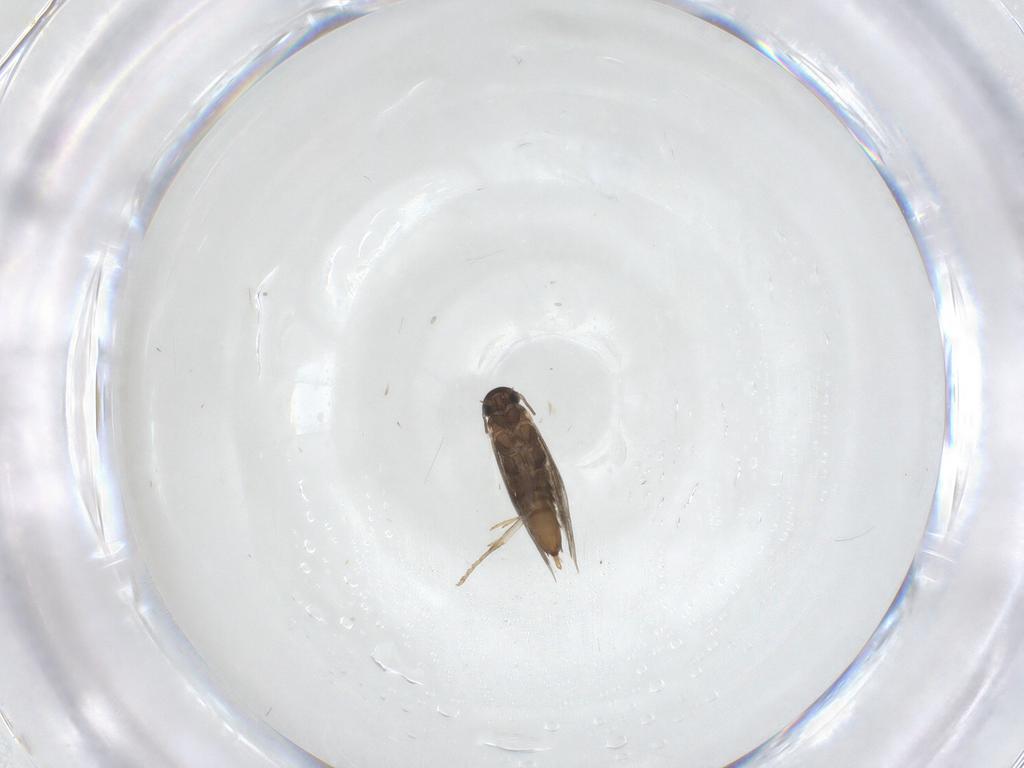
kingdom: Animalia
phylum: Arthropoda
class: Insecta
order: Lepidoptera
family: Heliozelidae
